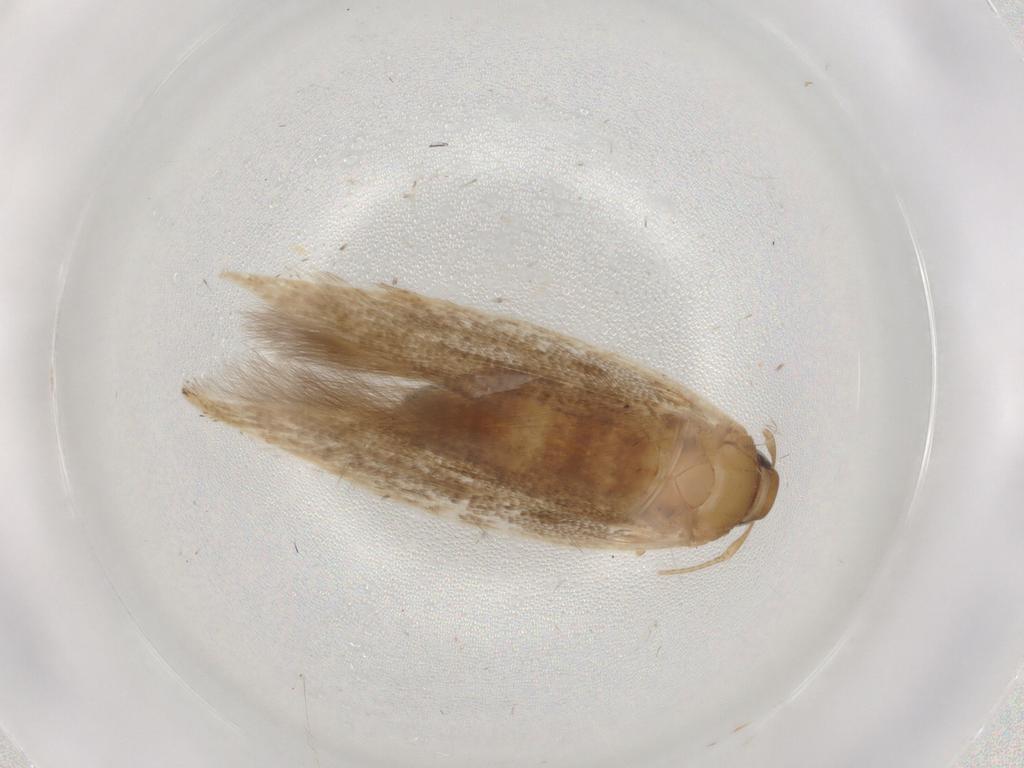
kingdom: Animalia
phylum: Arthropoda
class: Insecta
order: Lepidoptera
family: Cosmopterigidae
